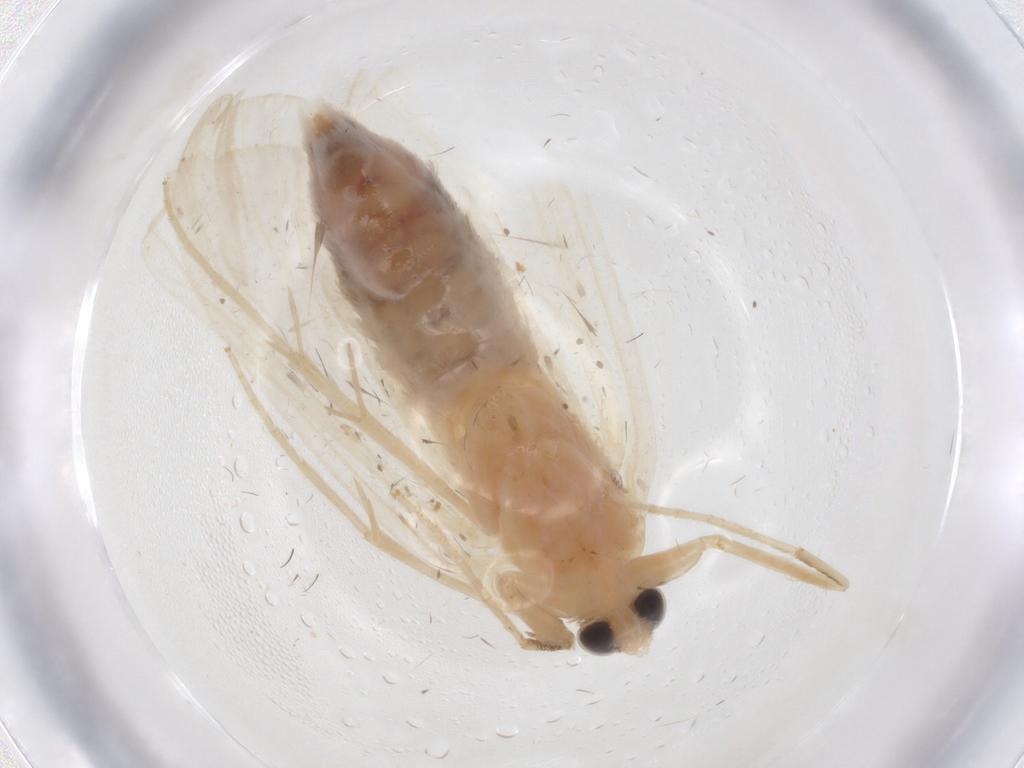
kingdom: Animalia
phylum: Arthropoda
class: Insecta
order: Lepidoptera
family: Crambidae
